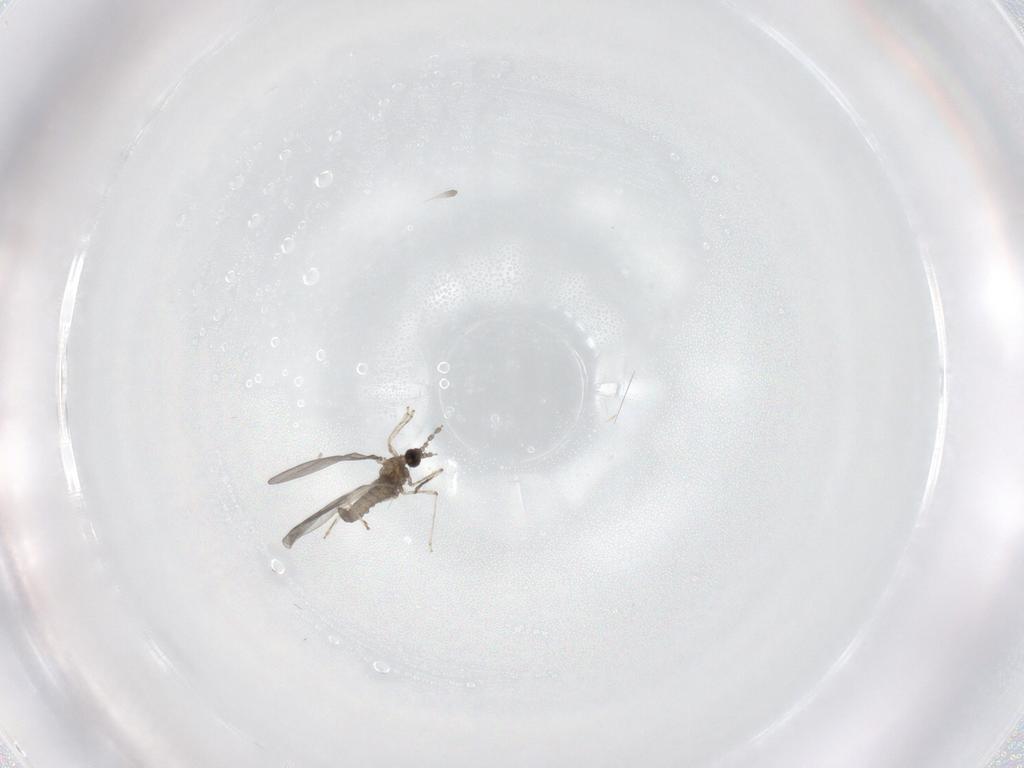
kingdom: Animalia
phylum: Arthropoda
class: Insecta
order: Diptera
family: Cecidomyiidae
